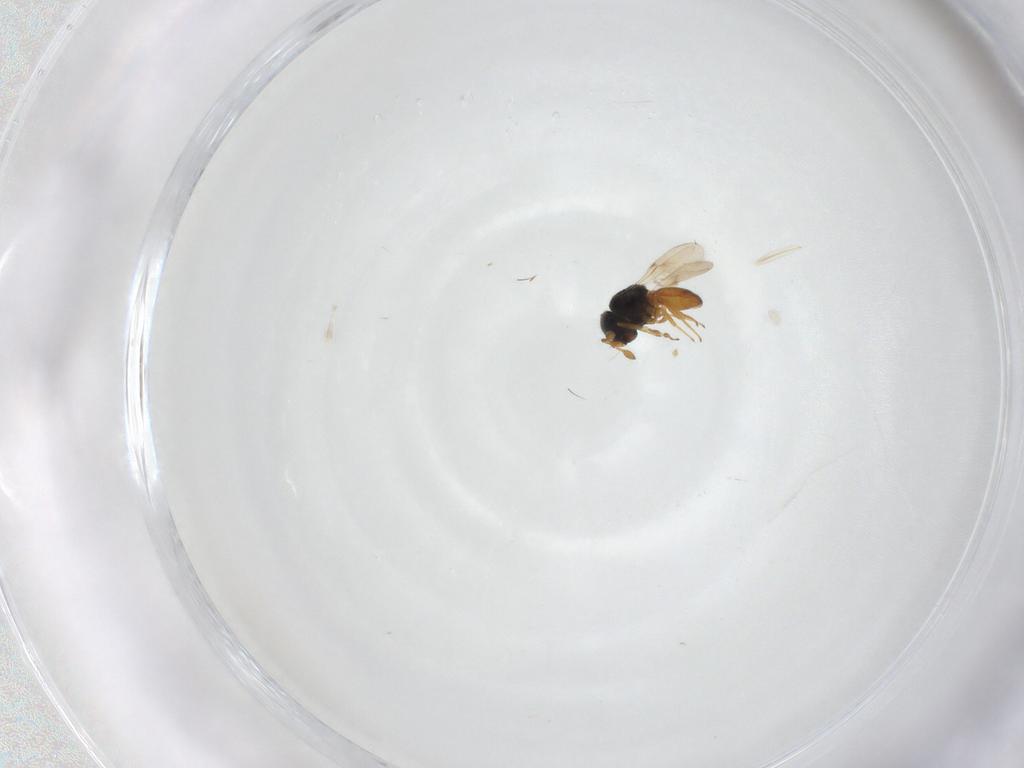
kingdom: Animalia
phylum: Arthropoda
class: Insecta
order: Hymenoptera
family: Scelionidae
